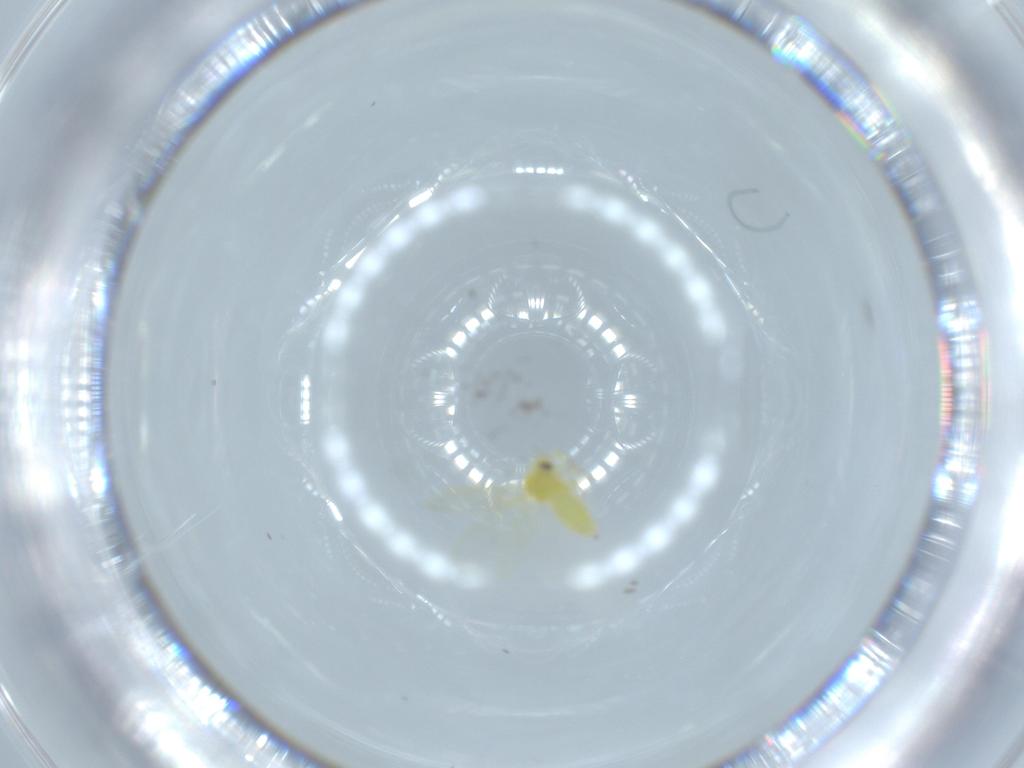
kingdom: Animalia
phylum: Arthropoda
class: Insecta
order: Hemiptera
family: Aleyrodidae
